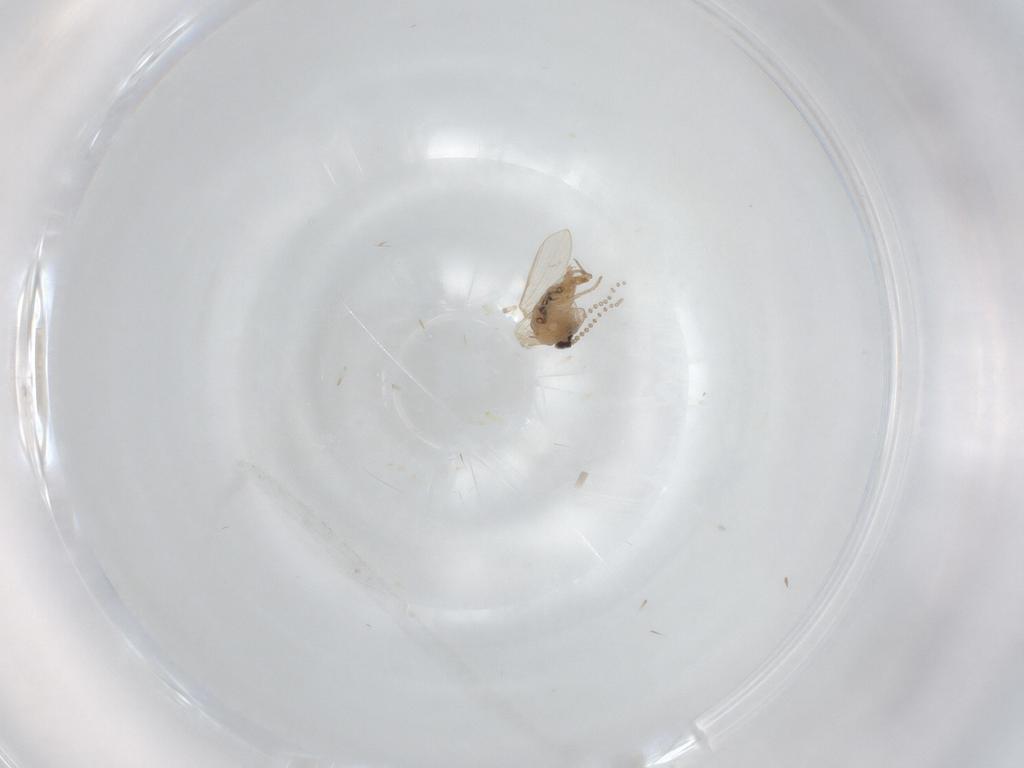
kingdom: Animalia
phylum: Arthropoda
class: Insecta
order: Diptera
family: Psychodidae
